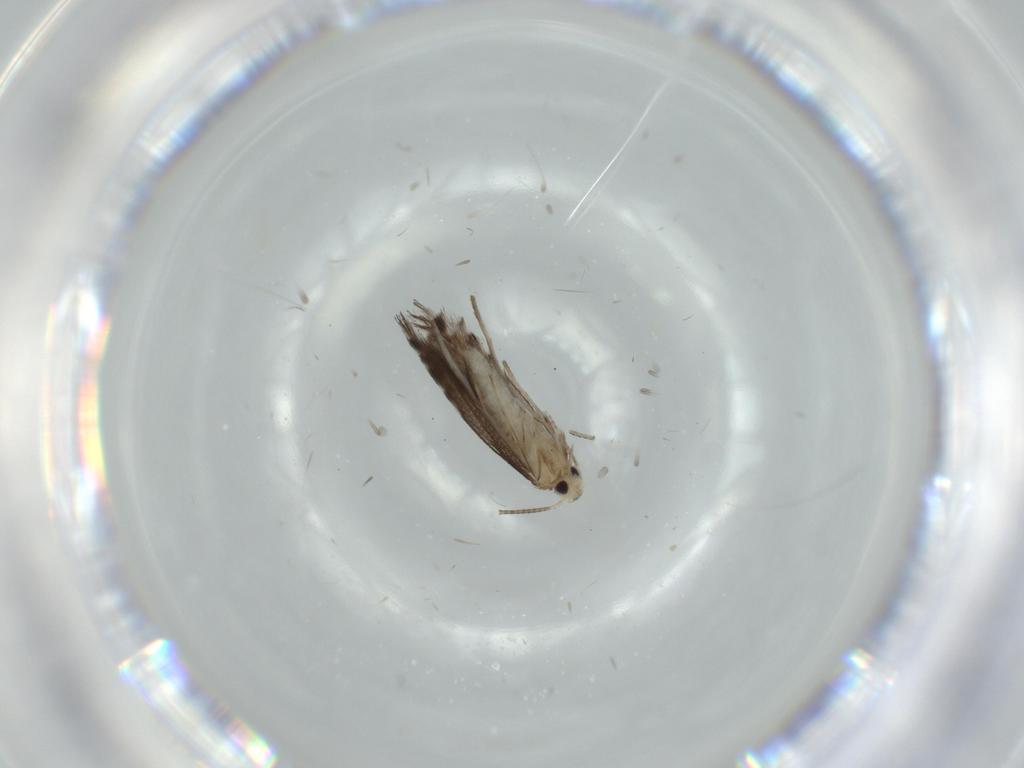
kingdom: Animalia
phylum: Arthropoda
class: Insecta
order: Lepidoptera
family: Gracillariidae
